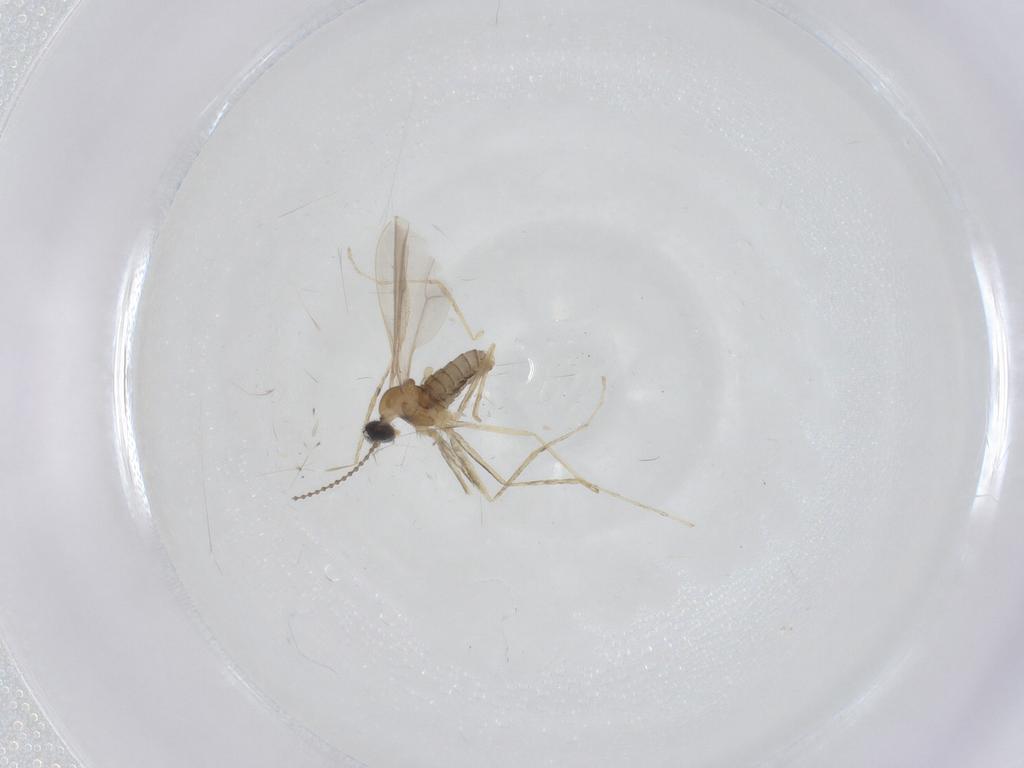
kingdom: Animalia
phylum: Arthropoda
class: Insecta
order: Diptera
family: Cecidomyiidae
